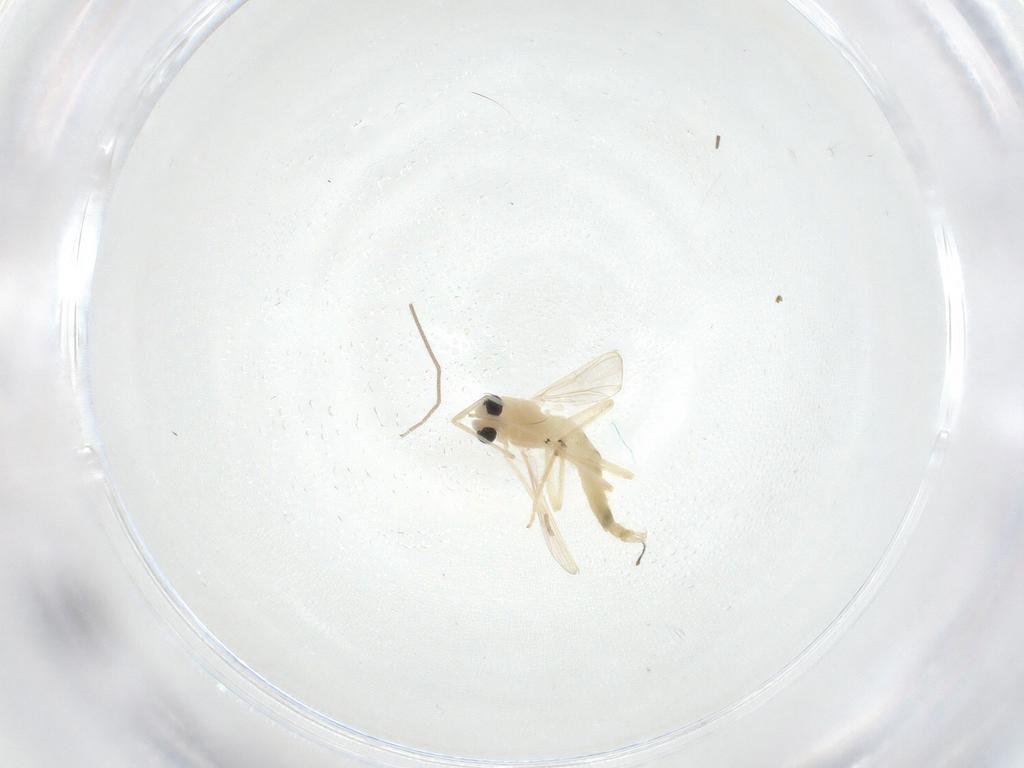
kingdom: Animalia
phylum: Arthropoda
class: Insecta
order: Diptera
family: Chironomidae
